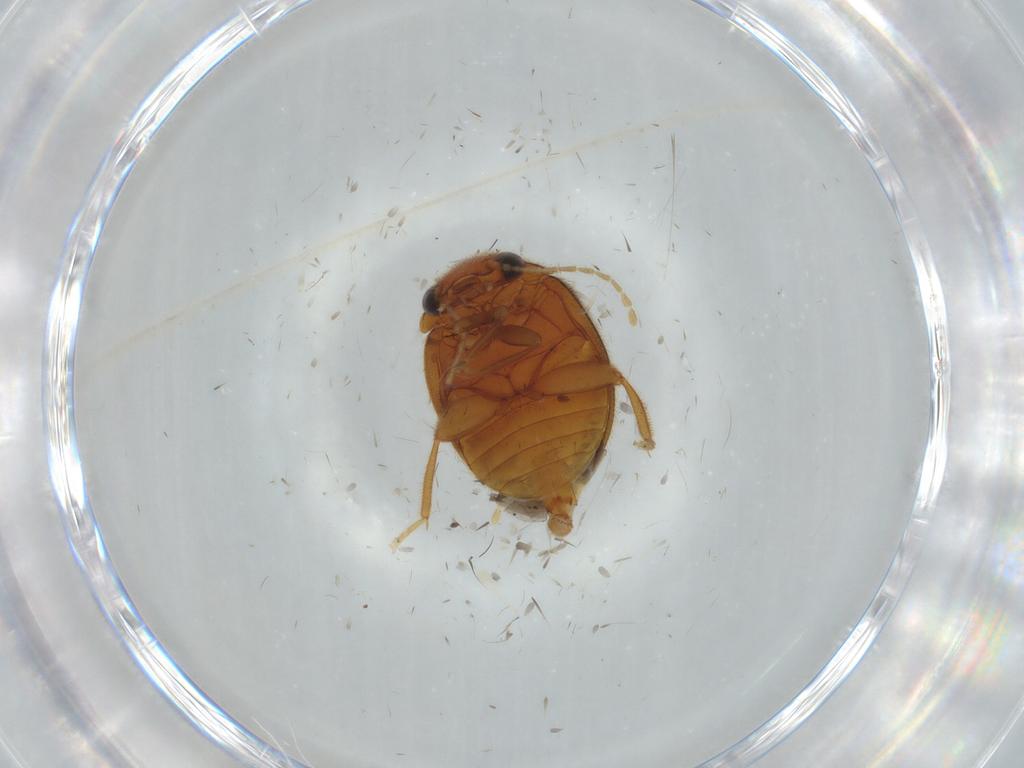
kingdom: Animalia
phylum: Arthropoda
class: Insecta
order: Coleoptera
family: Scirtidae
